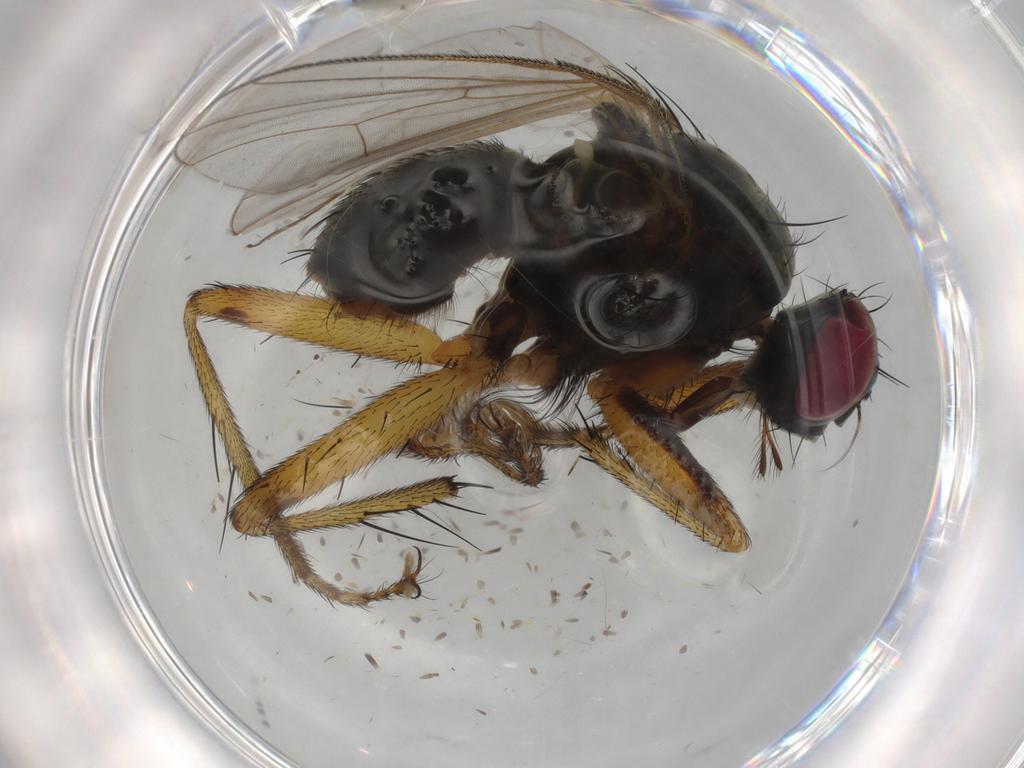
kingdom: Animalia
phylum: Arthropoda
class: Insecta
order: Diptera
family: Muscidae
